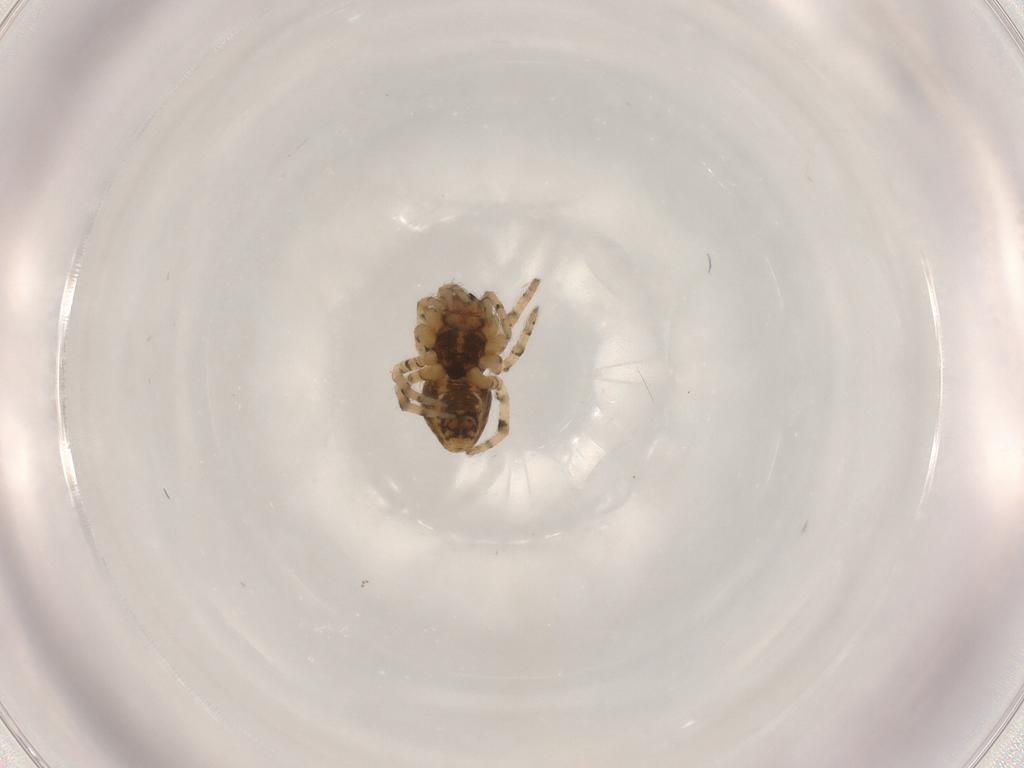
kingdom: Animalia
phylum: Arthropoda
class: Arachnida
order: Araneae
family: Araneidae
